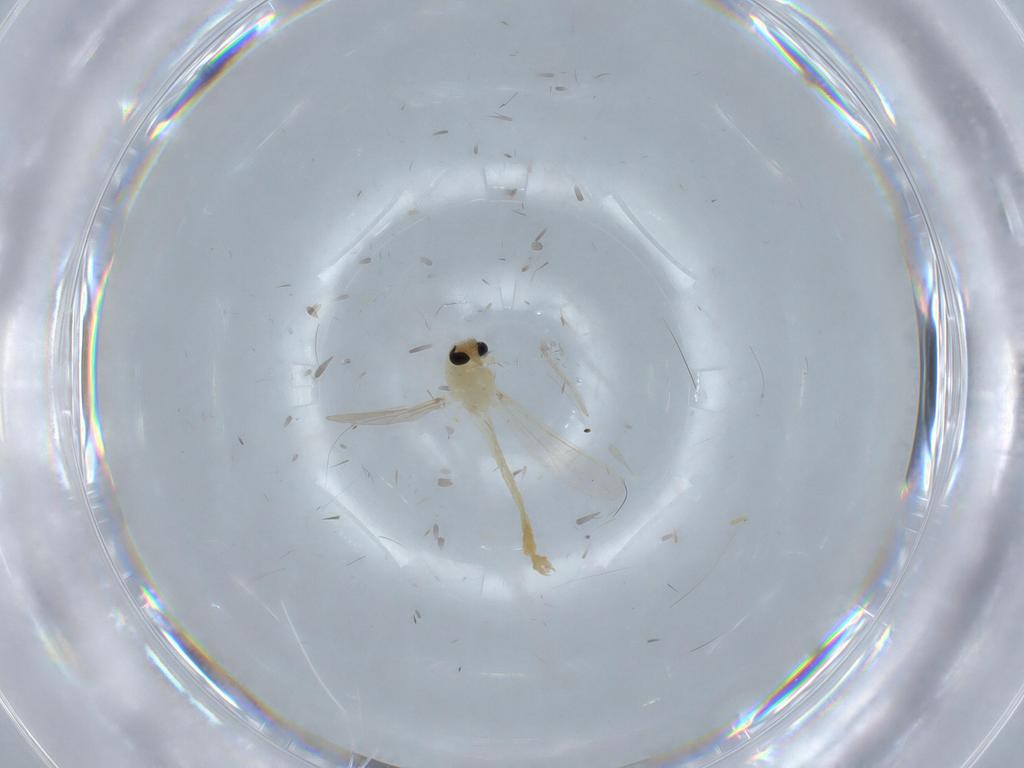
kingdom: Animalia
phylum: Arthropoda
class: Insecta
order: Diptera
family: Chironomidae
